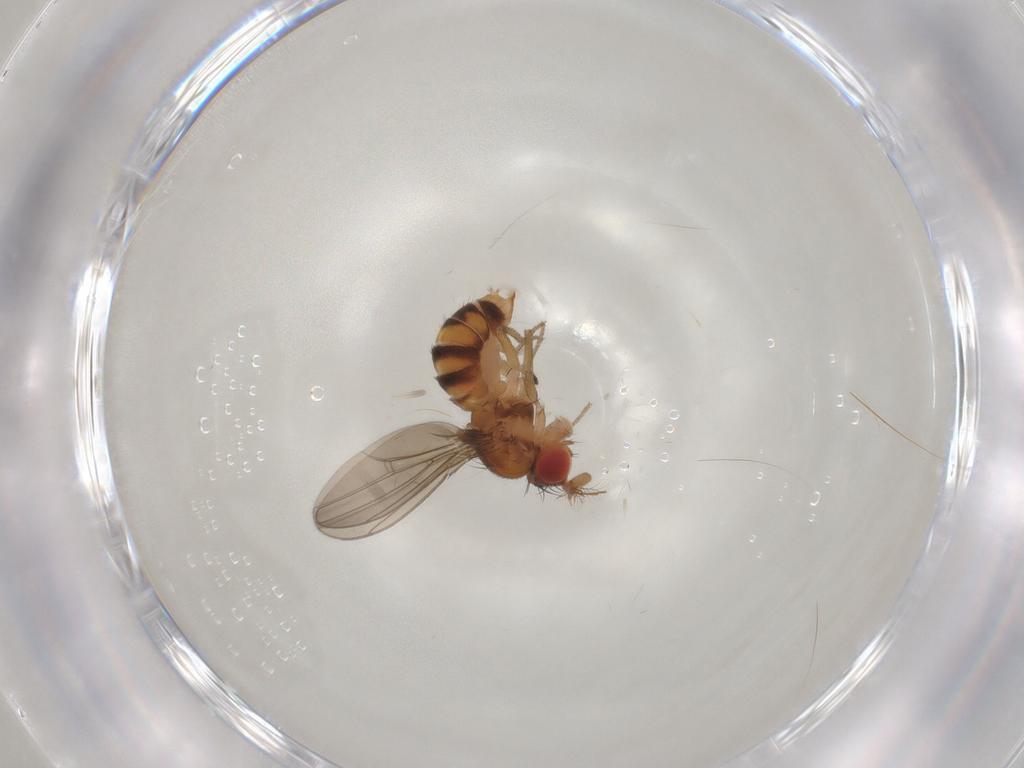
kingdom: Animalia
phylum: Arthropoda
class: Insecta
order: Diptera
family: Drosophilidae
